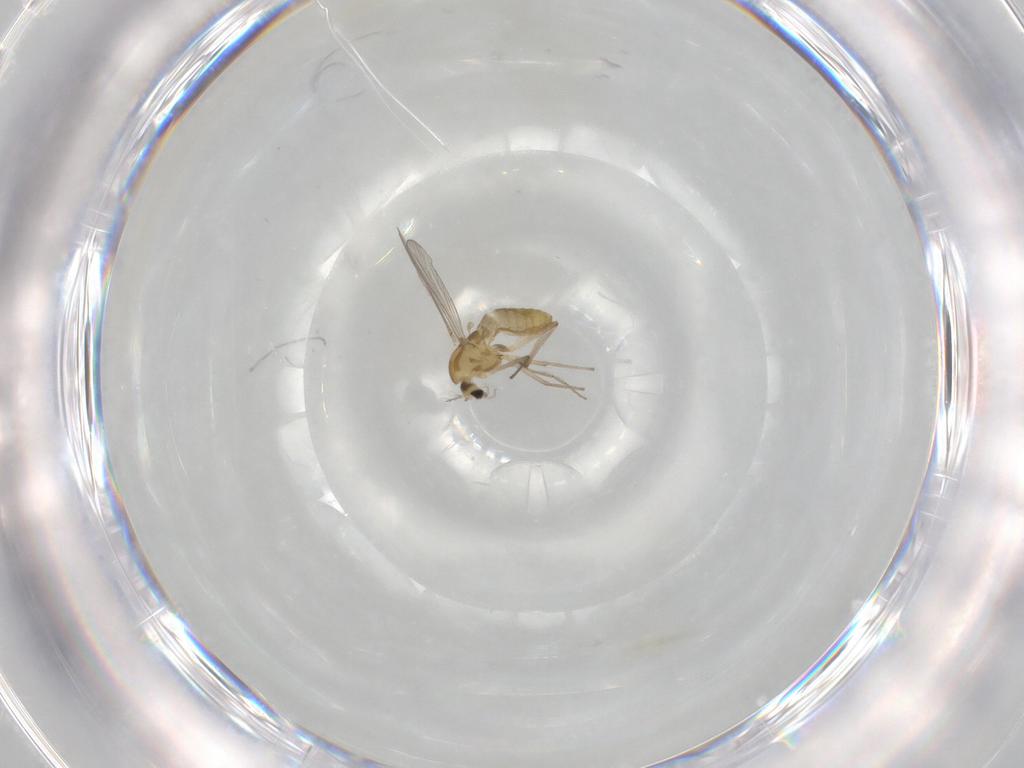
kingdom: Animalia
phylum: Arthropoda
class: Insecta
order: Diptera
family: Chironomidae
